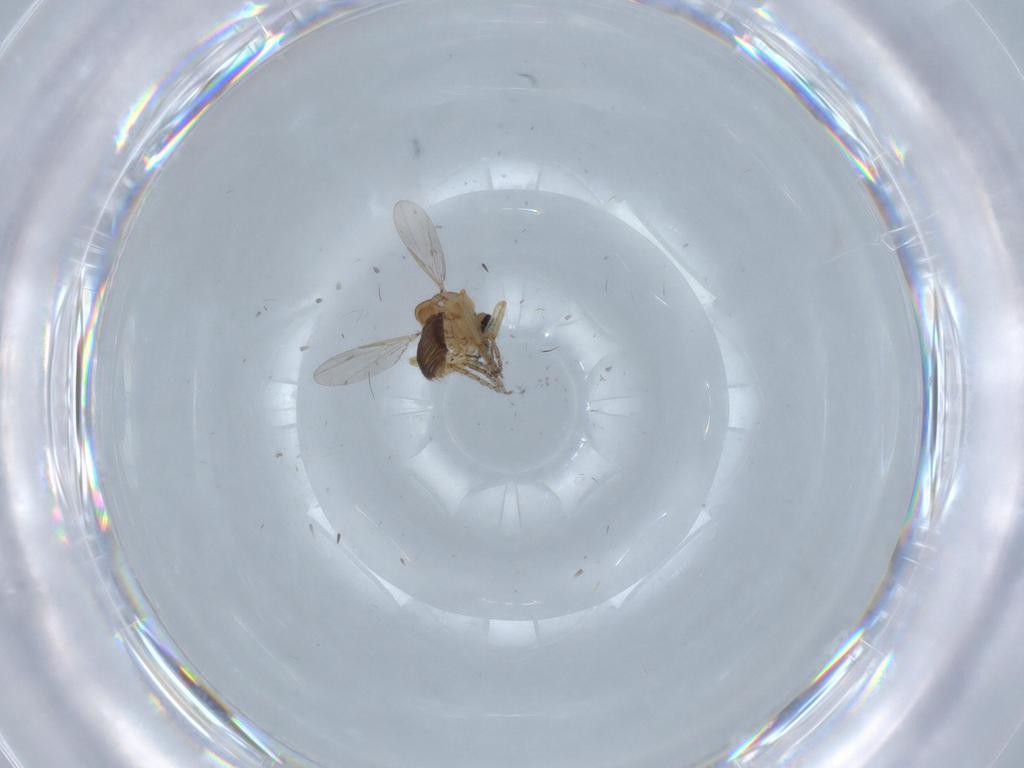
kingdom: Animalia
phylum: Arthropoda
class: Insecta
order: Diptera
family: Ceratopogonidae
